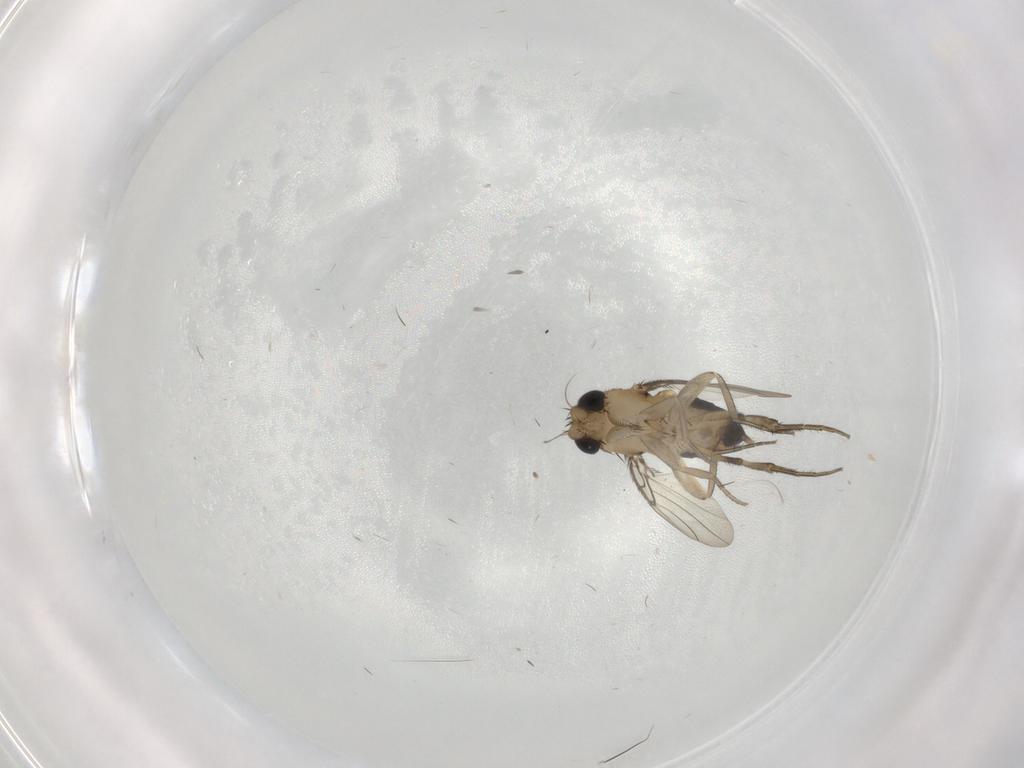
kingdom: Animalia
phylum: Arthropoda
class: Insecta
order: Diptera
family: Phoridae
